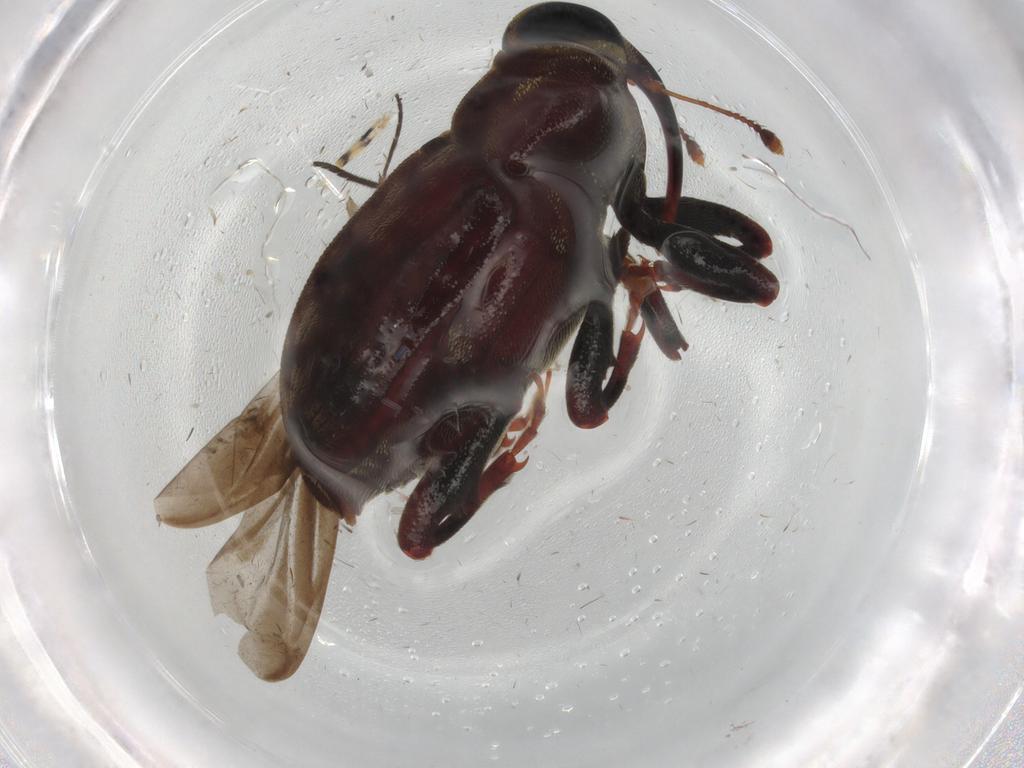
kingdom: Animalia
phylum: Arthropoda
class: Insecta
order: Coleoptera
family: Curculionidae
